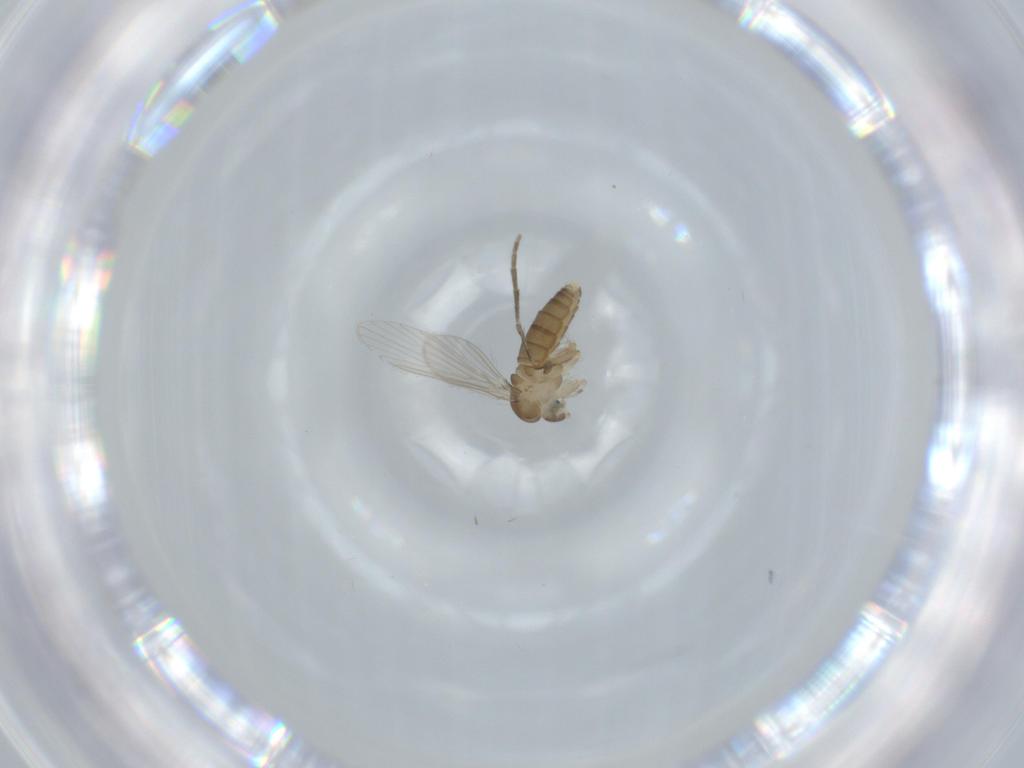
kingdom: Animalia
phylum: Arthropoda
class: Insecta
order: Diptera
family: Psychodidae
